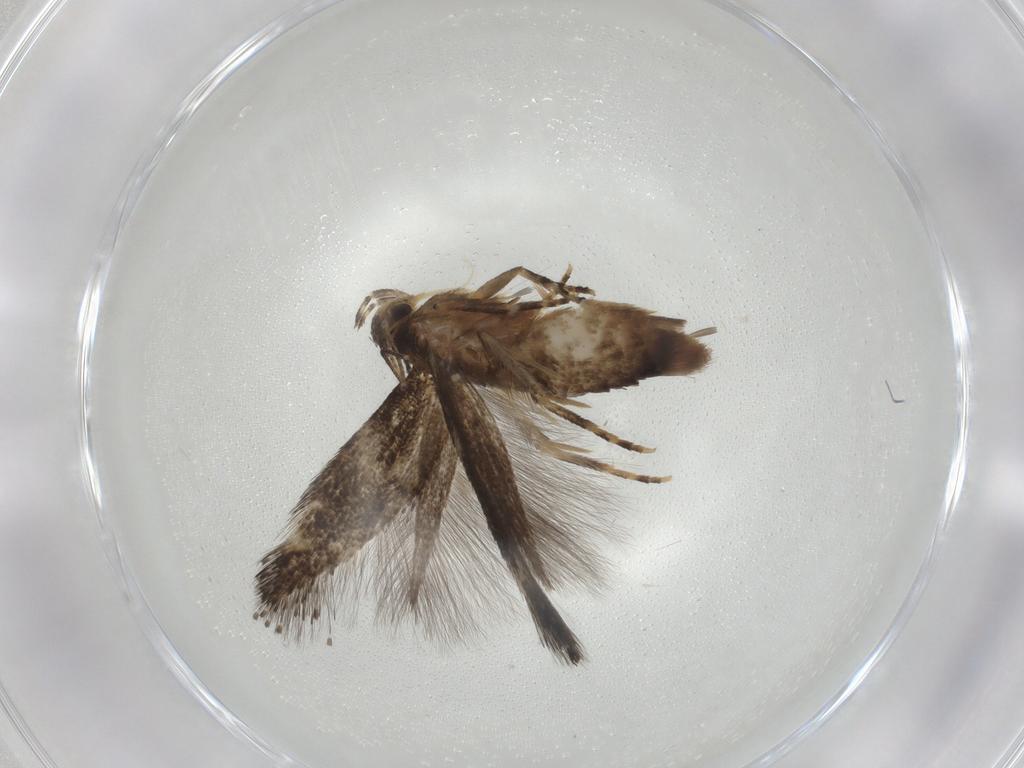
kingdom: Animalia
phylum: Arthropoda
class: Insecta
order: Lepidoptera
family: Elachistidae
